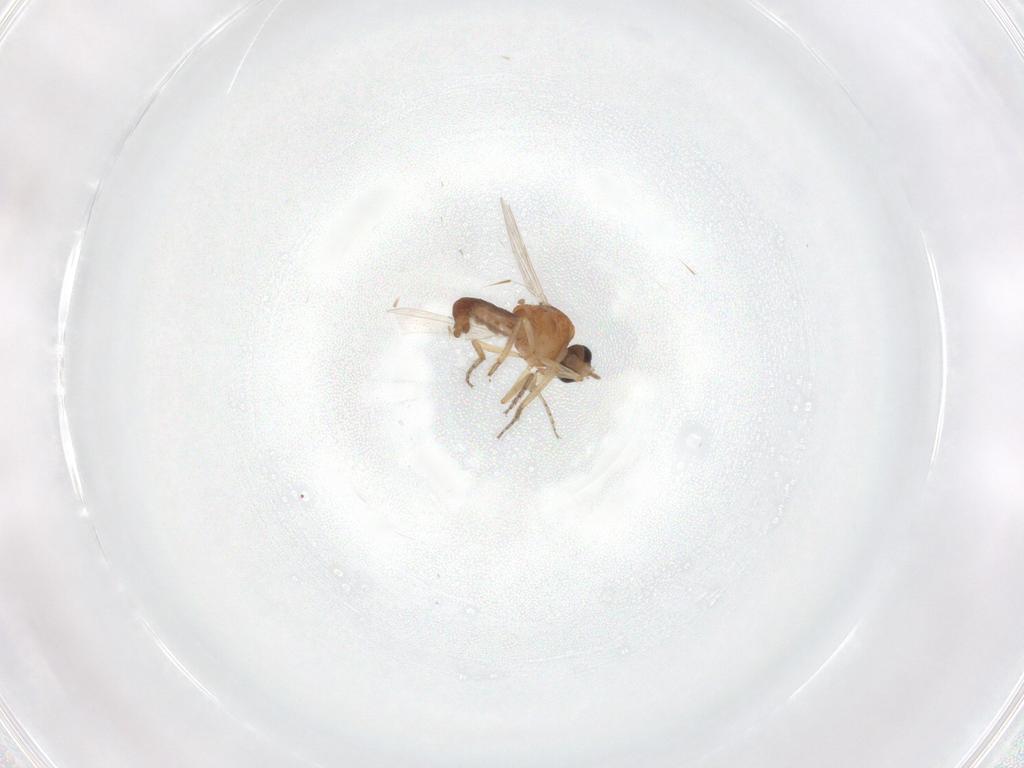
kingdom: Animalia
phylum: Arthropoda
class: Insecta
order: Diptera
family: Ceratopogonidae
